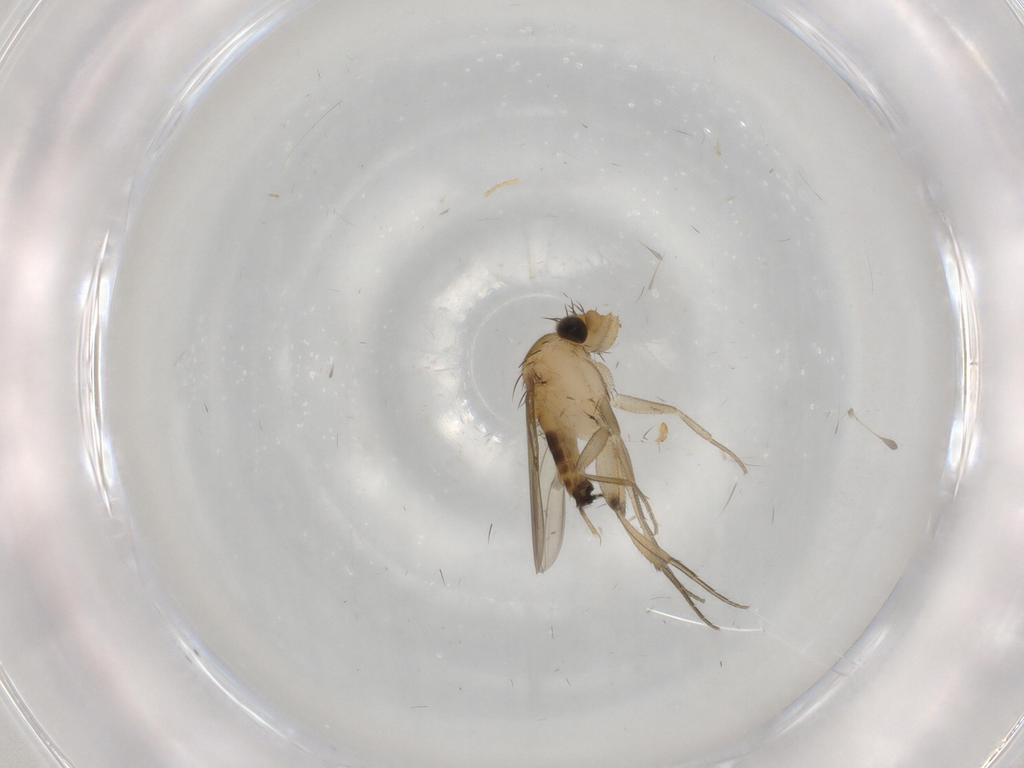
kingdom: Animalia
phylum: Arthropoda
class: Insecta
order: Diptera
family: Phoridae
